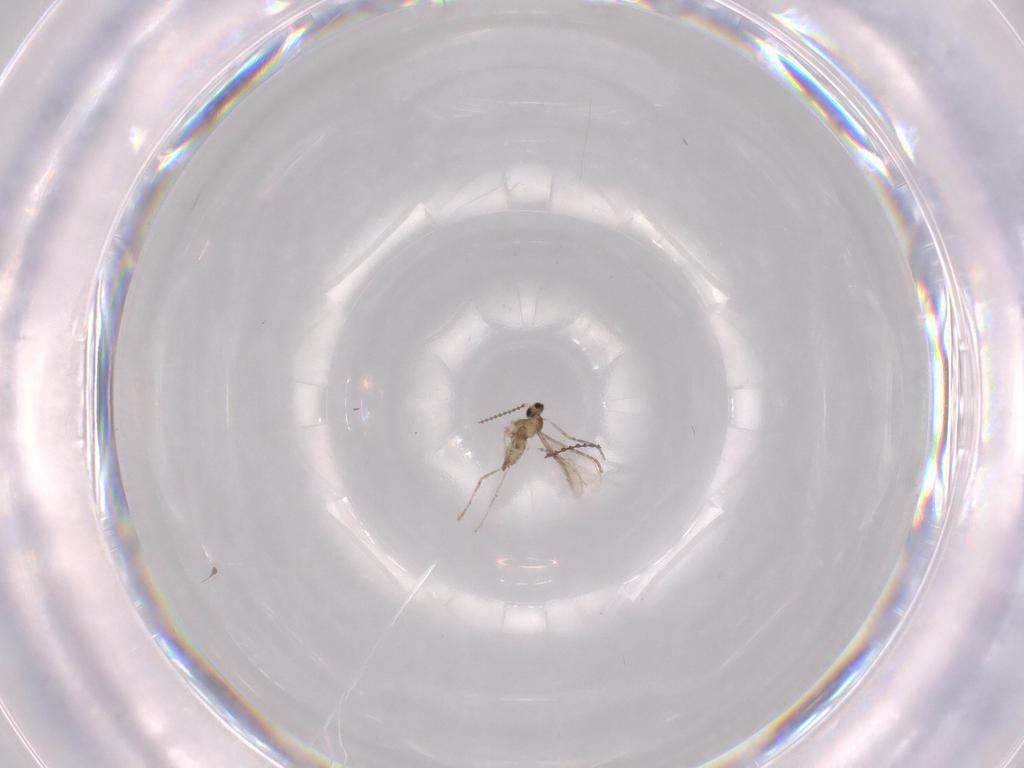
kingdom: Animalia
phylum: Arthropoda
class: Insecta
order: Diptera
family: Cecidomyiidae
